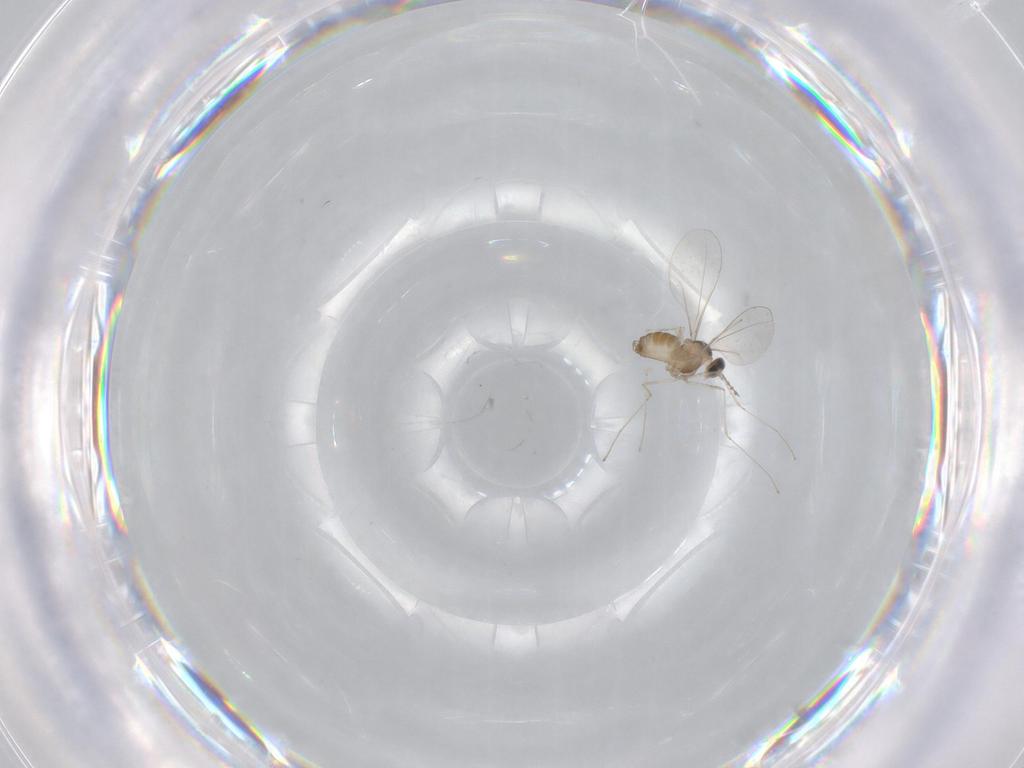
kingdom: Animalia
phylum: Arthropoda
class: Insecta
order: Diptera
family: Cecidomyiidae
